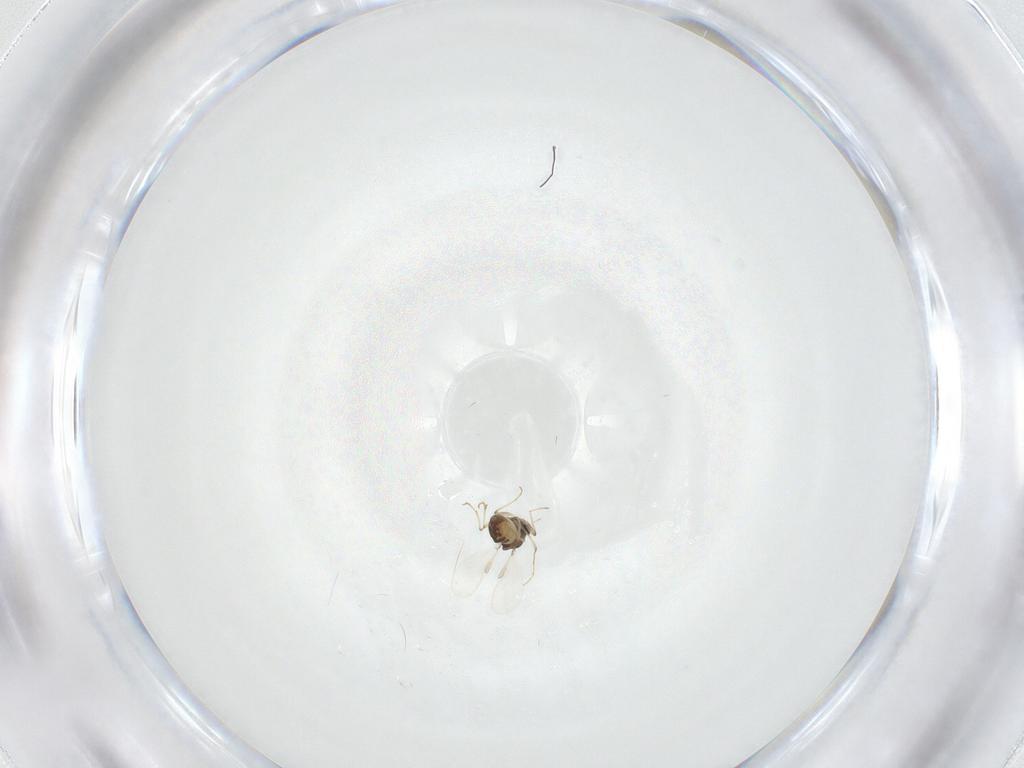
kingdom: Animalia
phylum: Arthropoda
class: Insecta
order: Diptera
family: Chironomidae
